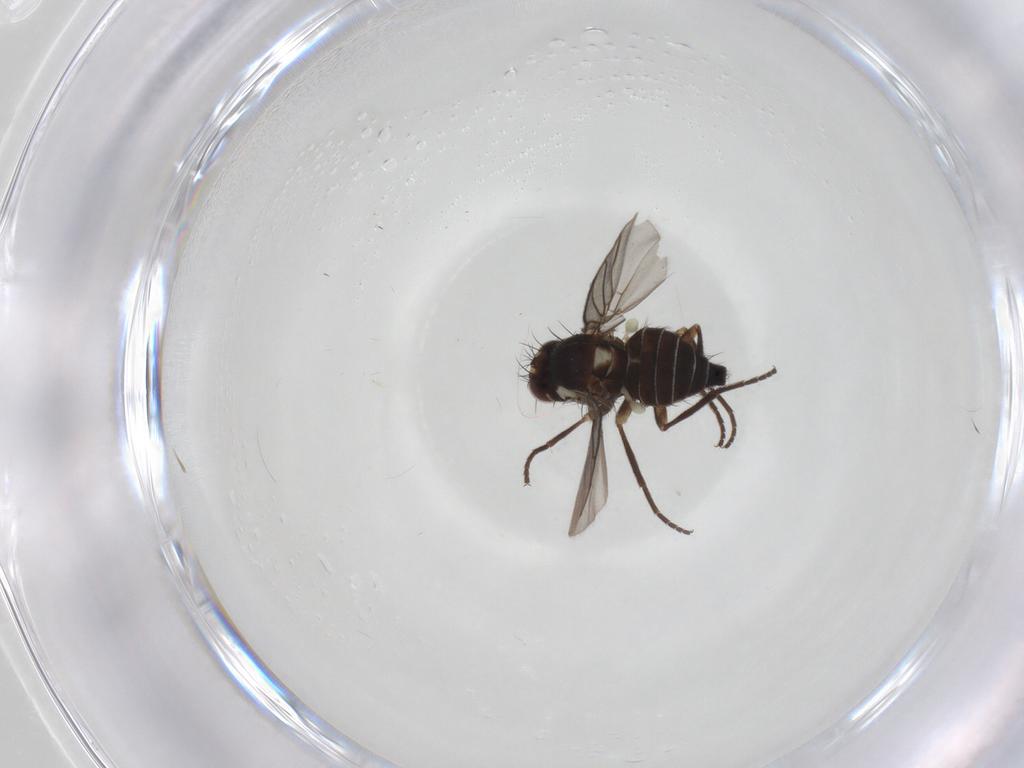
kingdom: Animalia
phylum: Arthropoda
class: Insecta
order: Diptera
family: Agromyzidae
